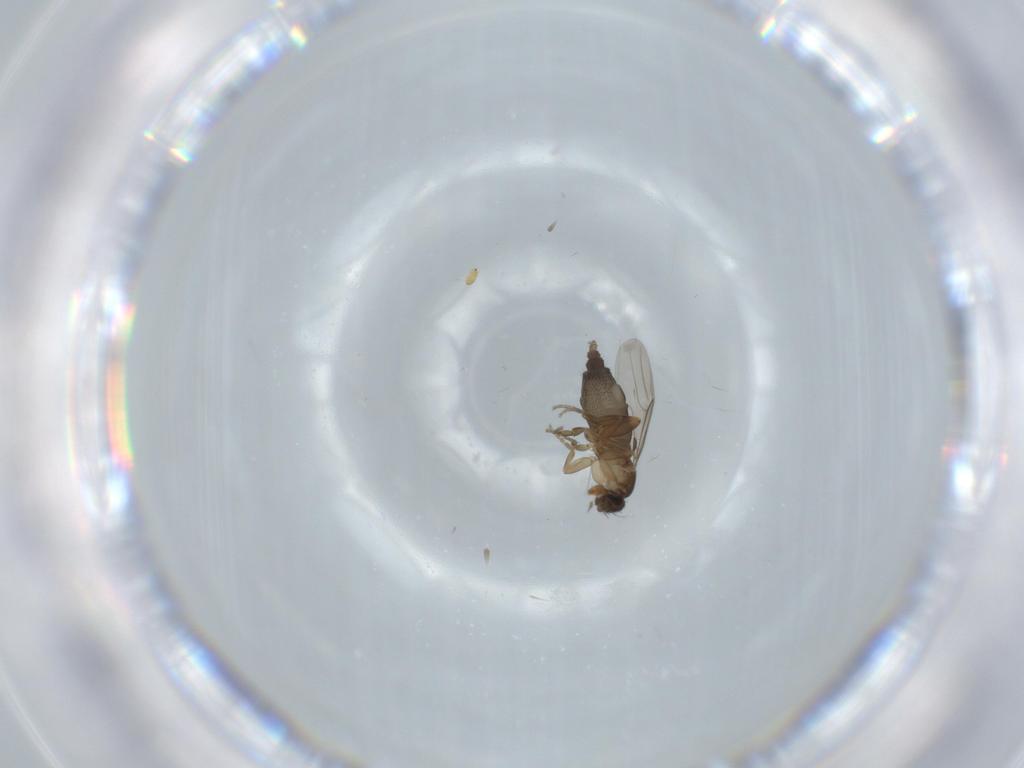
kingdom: Animalia
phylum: Arthropoda
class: Insecta
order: Diptera
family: Phoridae
